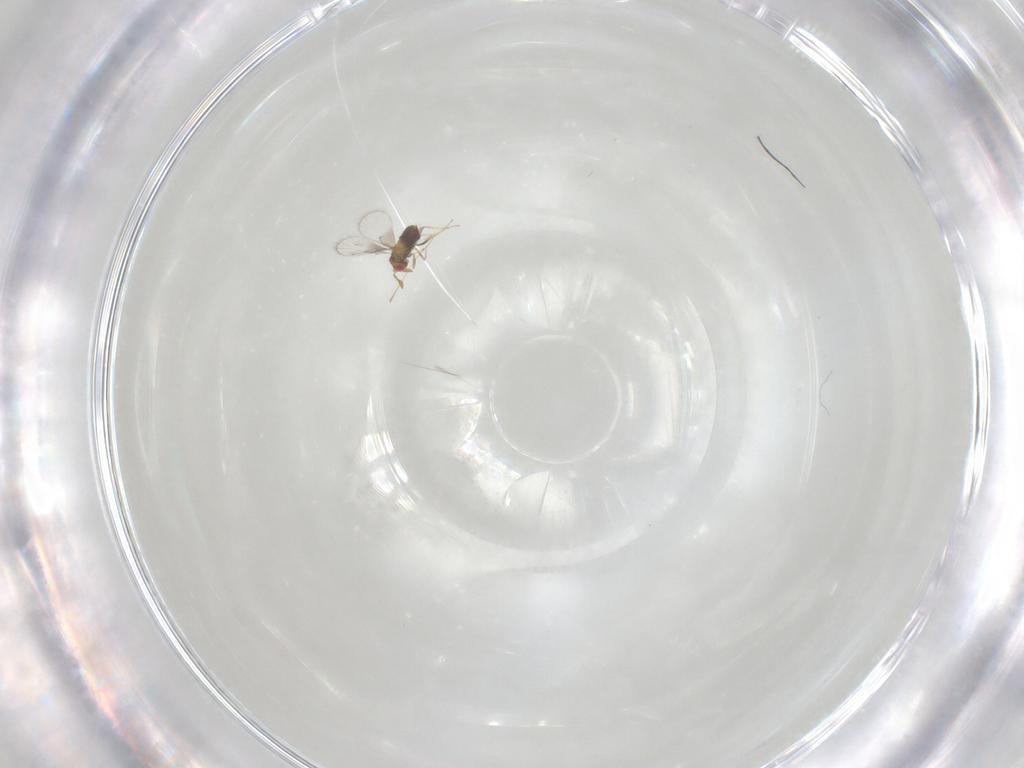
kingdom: Animalia
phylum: Arthropoda
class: Insecta
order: Hymenoptera
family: Trichogrammatidae
